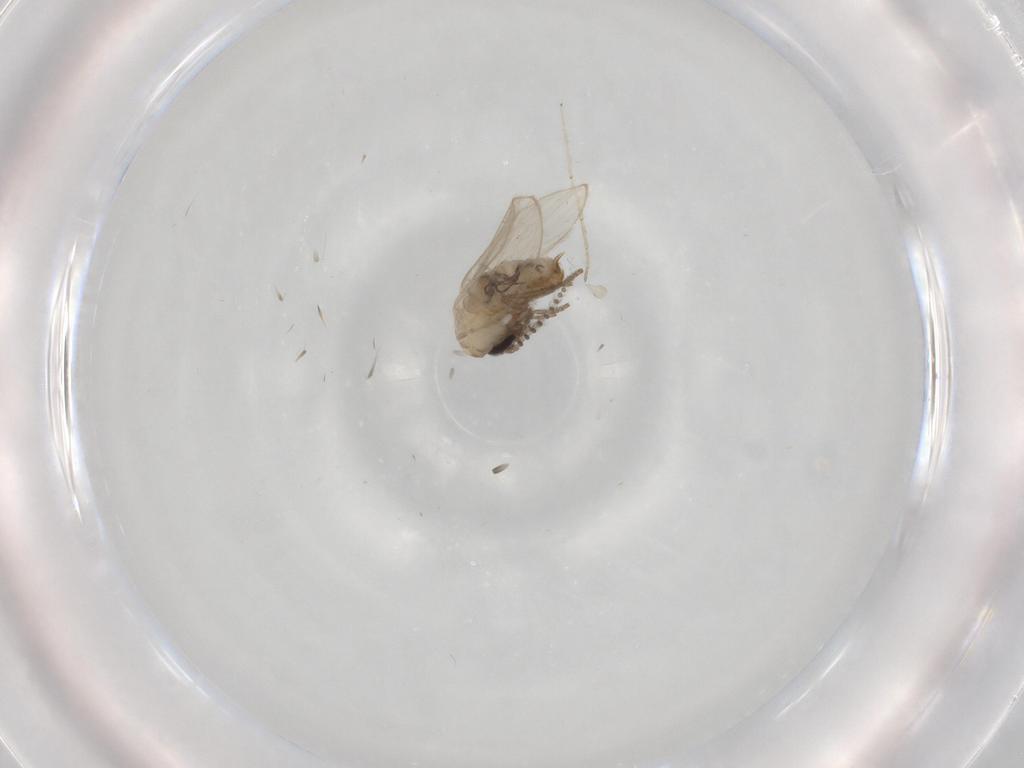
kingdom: Animalia
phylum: Arthropoda
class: Insecta
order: Diptera
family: Psychodidae
